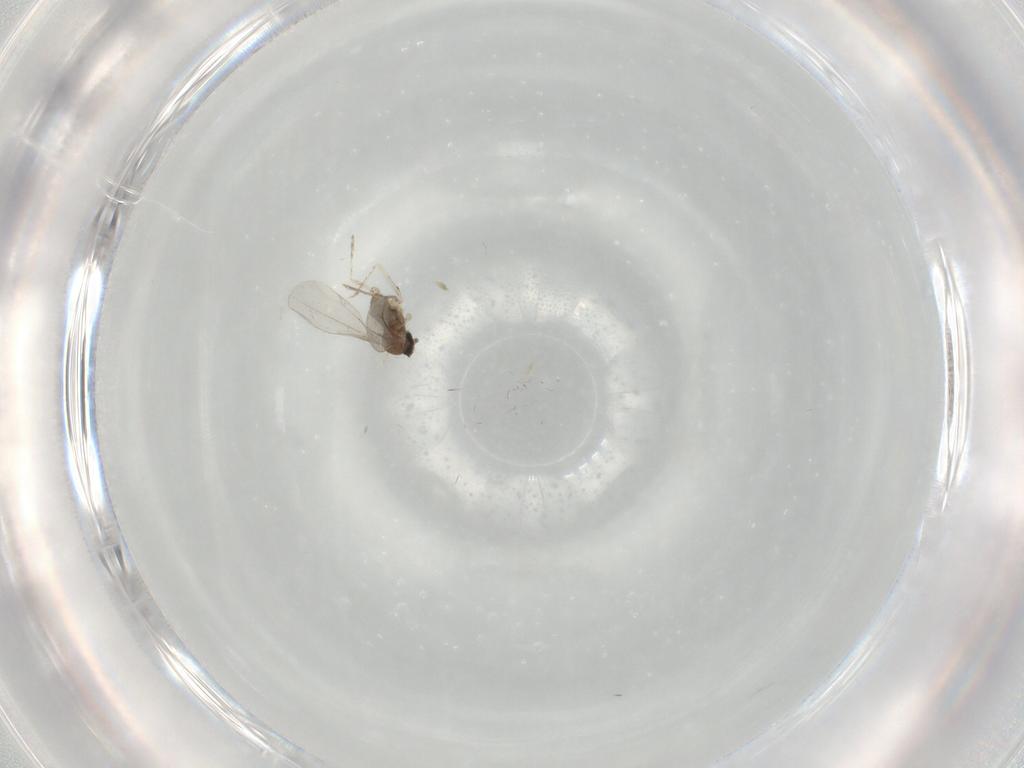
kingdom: Animalia
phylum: Arthropoda
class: Insecta
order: Diptera
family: Cecidomyiidae
